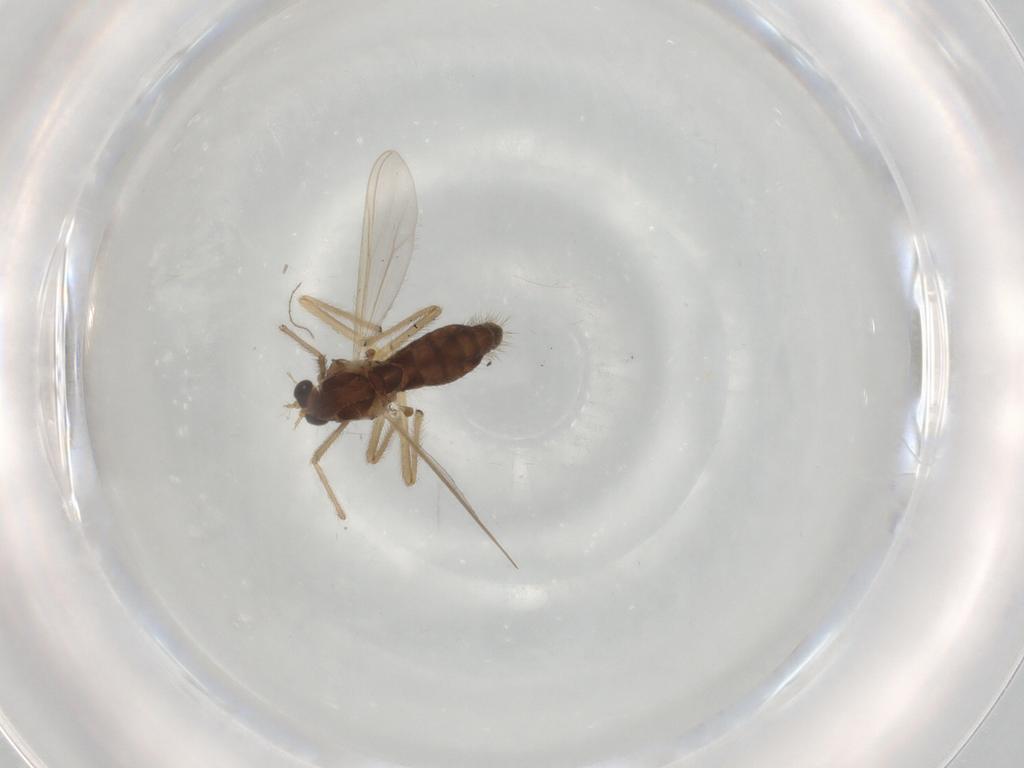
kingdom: Animalia
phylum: Arthropoda
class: Insecta
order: Diptera
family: Chironomidae
